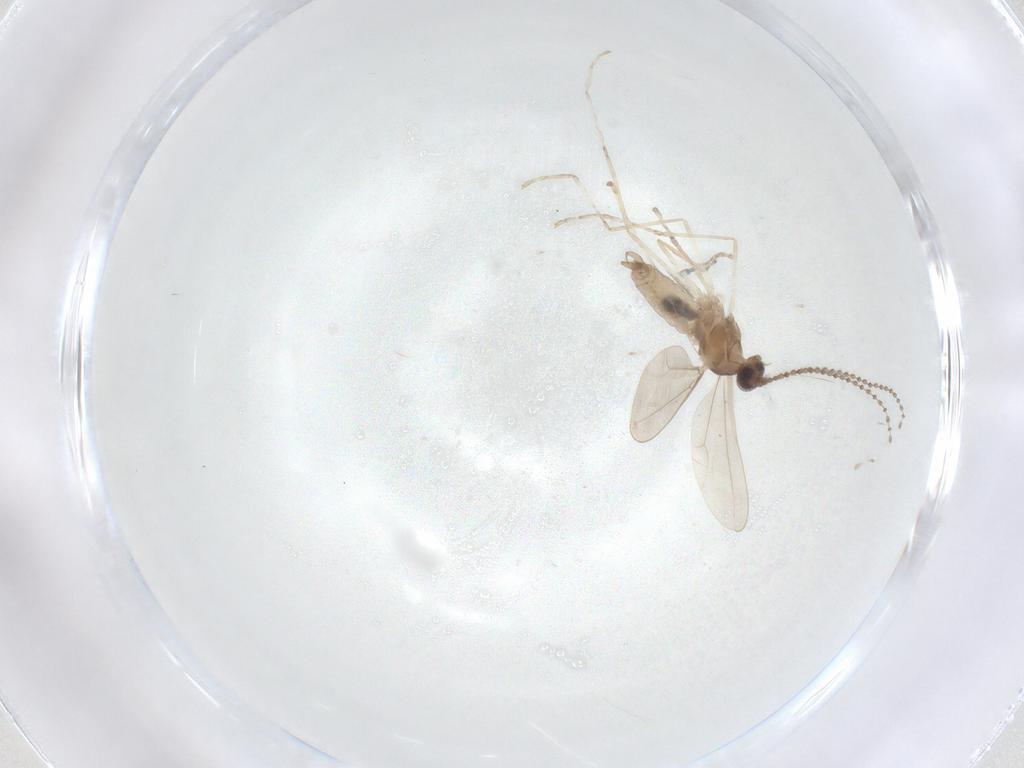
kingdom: Animalia
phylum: Arthropoda
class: Insecta
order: Diptera
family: Cecidomyiidae
